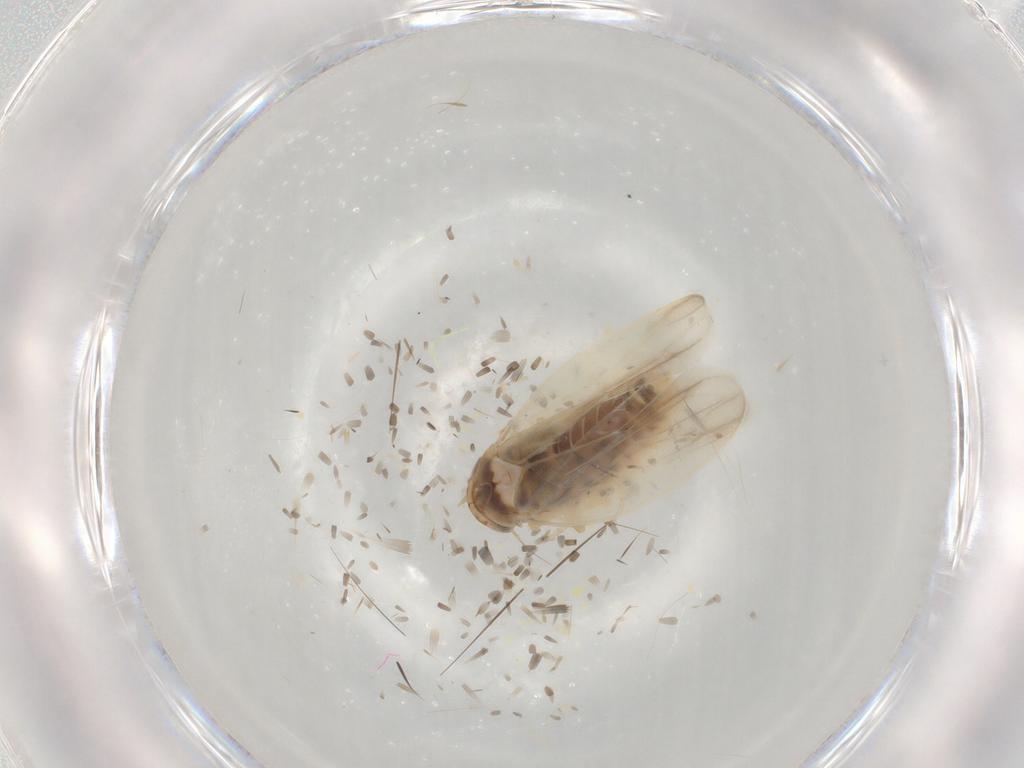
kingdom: Animalia
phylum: Arthropoda
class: Insecta
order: Hemiptera
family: Cicadellidae
